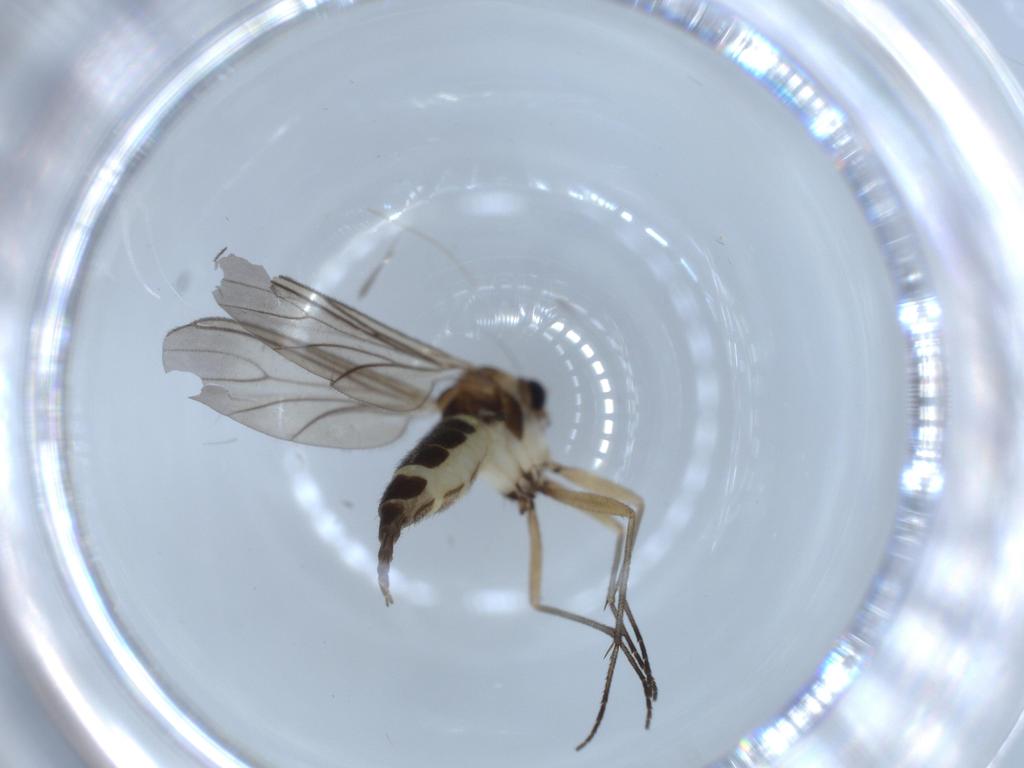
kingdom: Animalia
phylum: Arthropoda
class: Insecta
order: Diptera
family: Sciaridae
